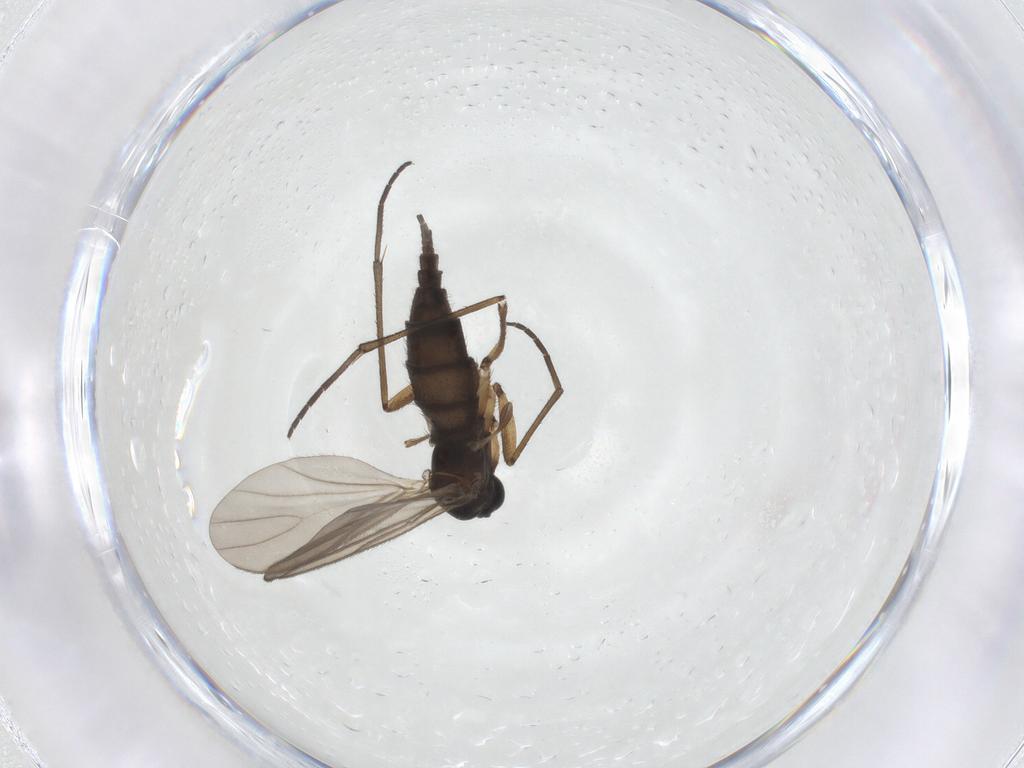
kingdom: Animalia
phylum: Arthropoda
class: Insecta
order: Diptera
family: Sciaridae
